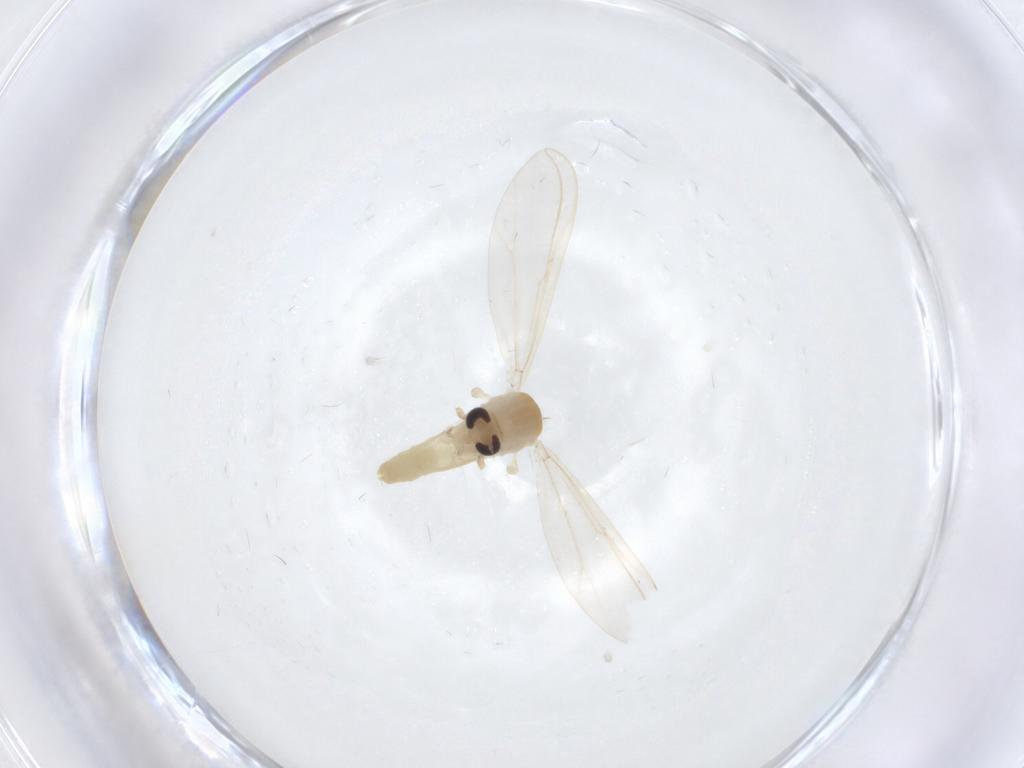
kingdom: Animalia
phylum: Arthropoda
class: Insecta
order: Diptera
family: Chironomidae
